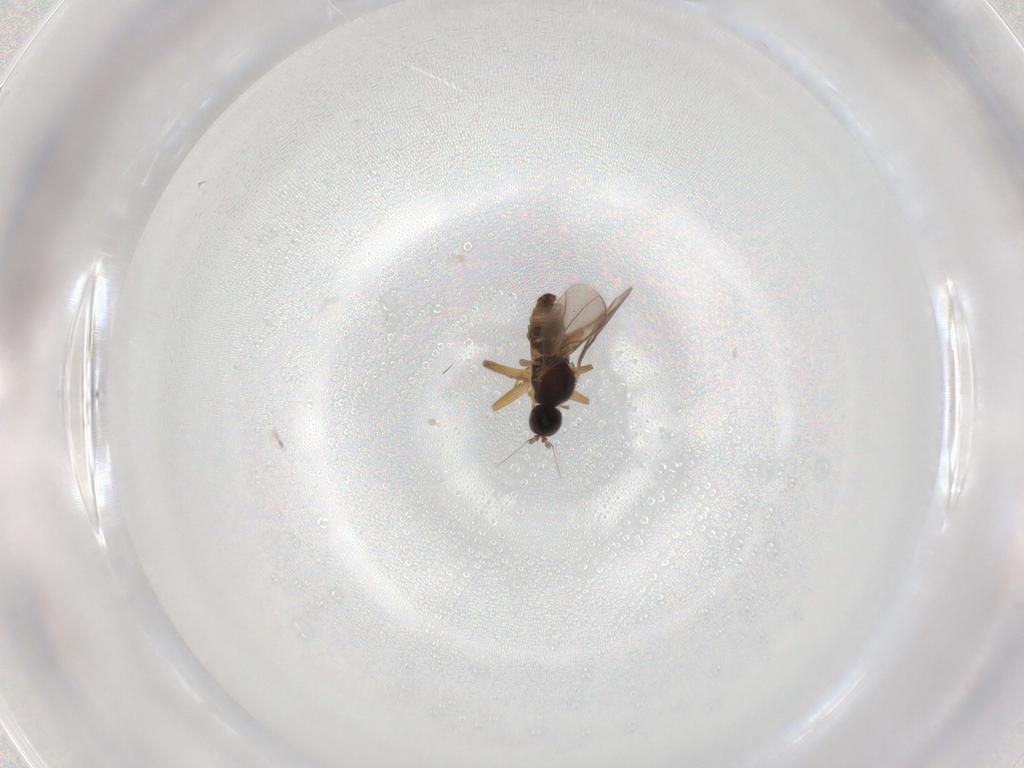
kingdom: Animalia
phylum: Arthropoda
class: Insecta
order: Diptera
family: Hybotidae
